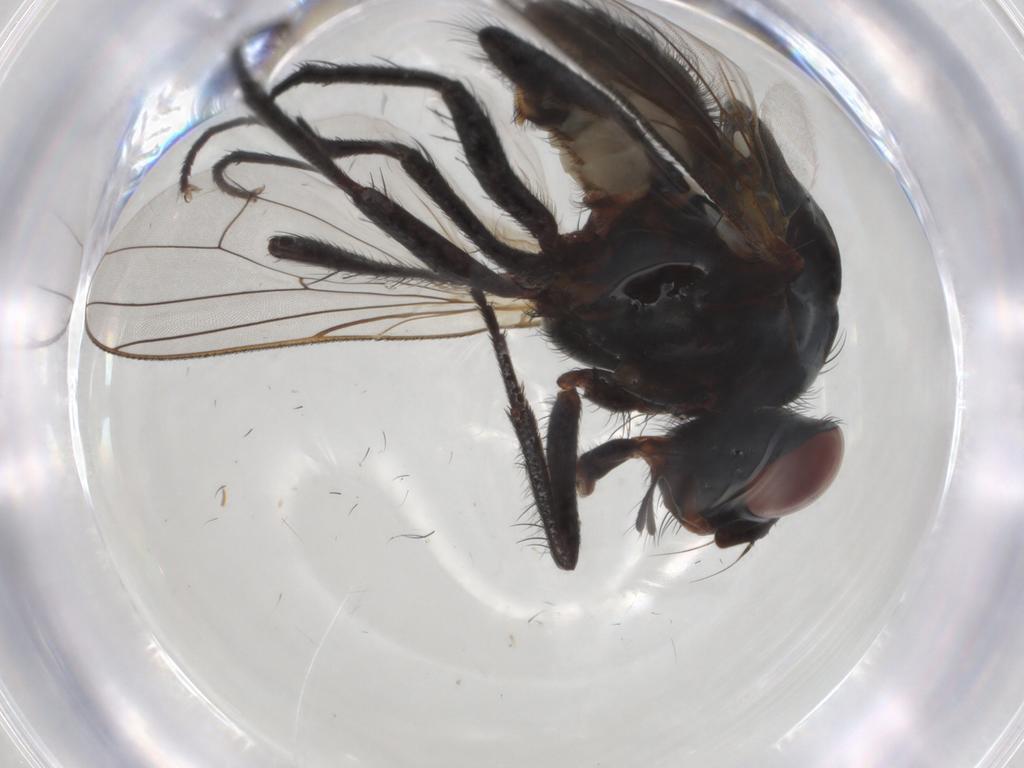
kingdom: Animalia
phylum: Arthropoda
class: Insecta
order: Diptera
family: Anthomyiidae
